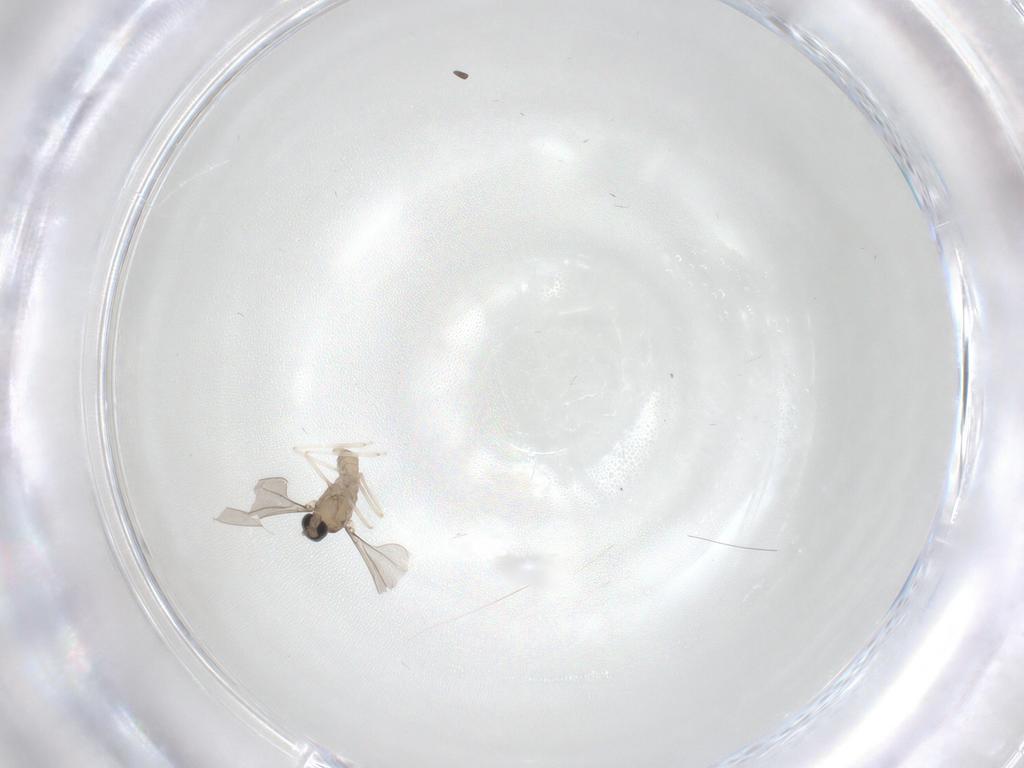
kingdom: Animalia
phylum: Arthropoda
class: Insecta
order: Diptera
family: Cecidomyiidae
